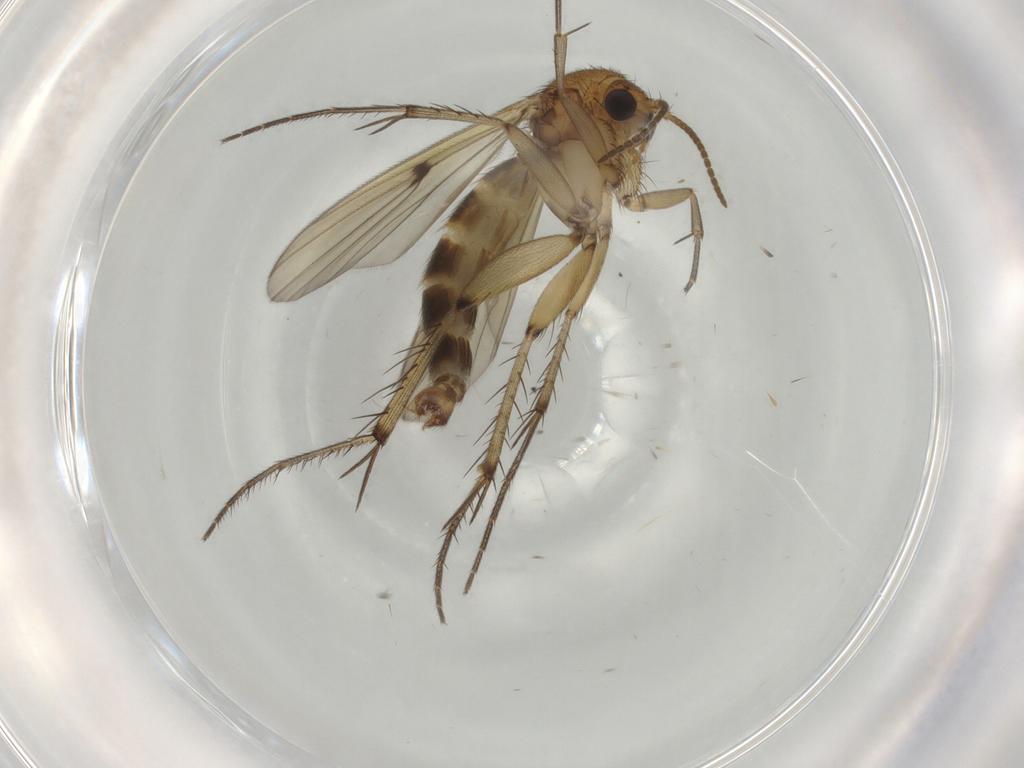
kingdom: Animalia
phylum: Arthropoda
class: Insecta
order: Diptera
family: Mycetophilidae
